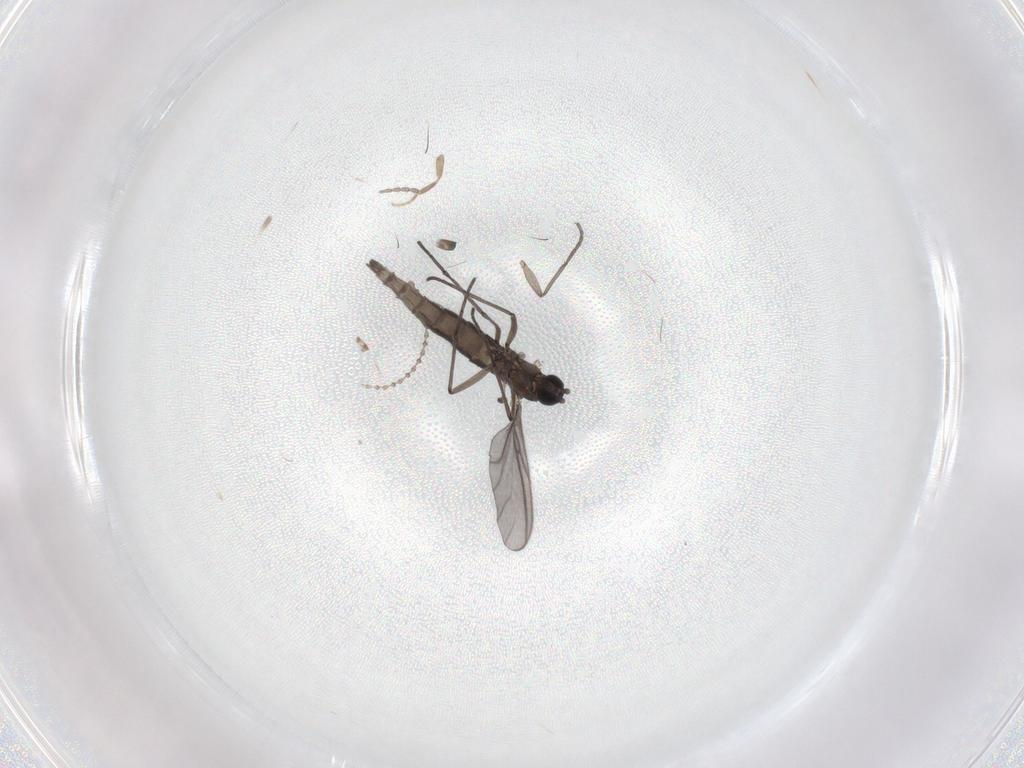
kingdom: Animalia
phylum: Arthropoda
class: Insecta
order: Diptera
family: Sciaridae
